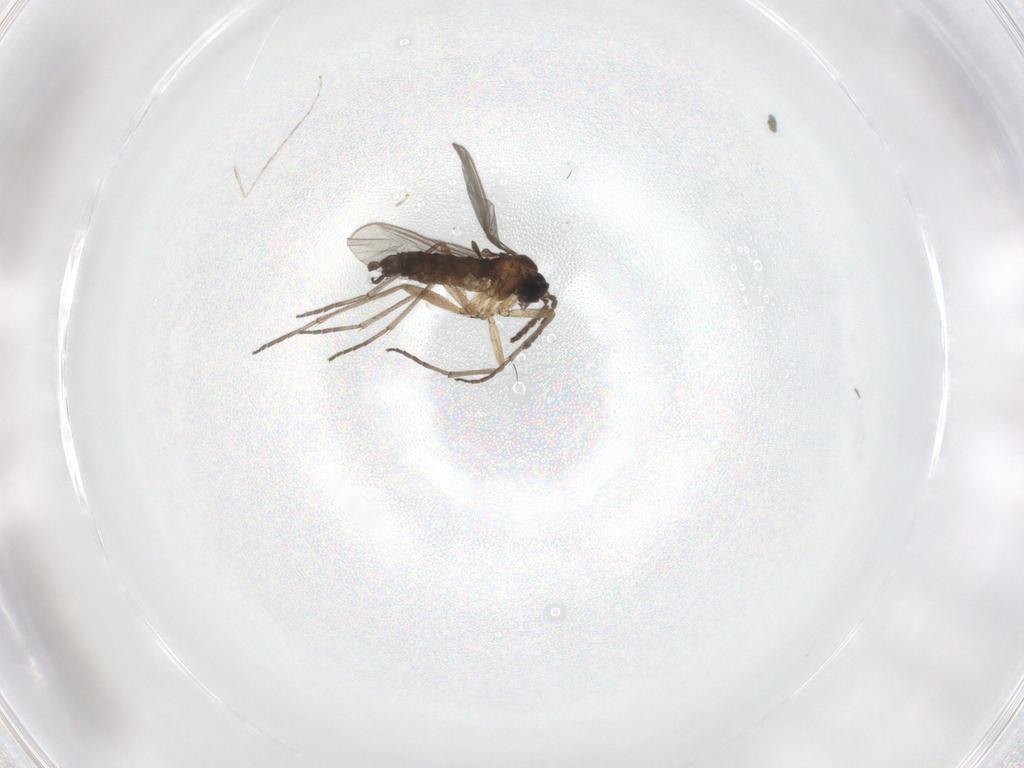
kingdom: Animalia
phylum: Arthropoda
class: Insecta
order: Diptera
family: Sciaridae
